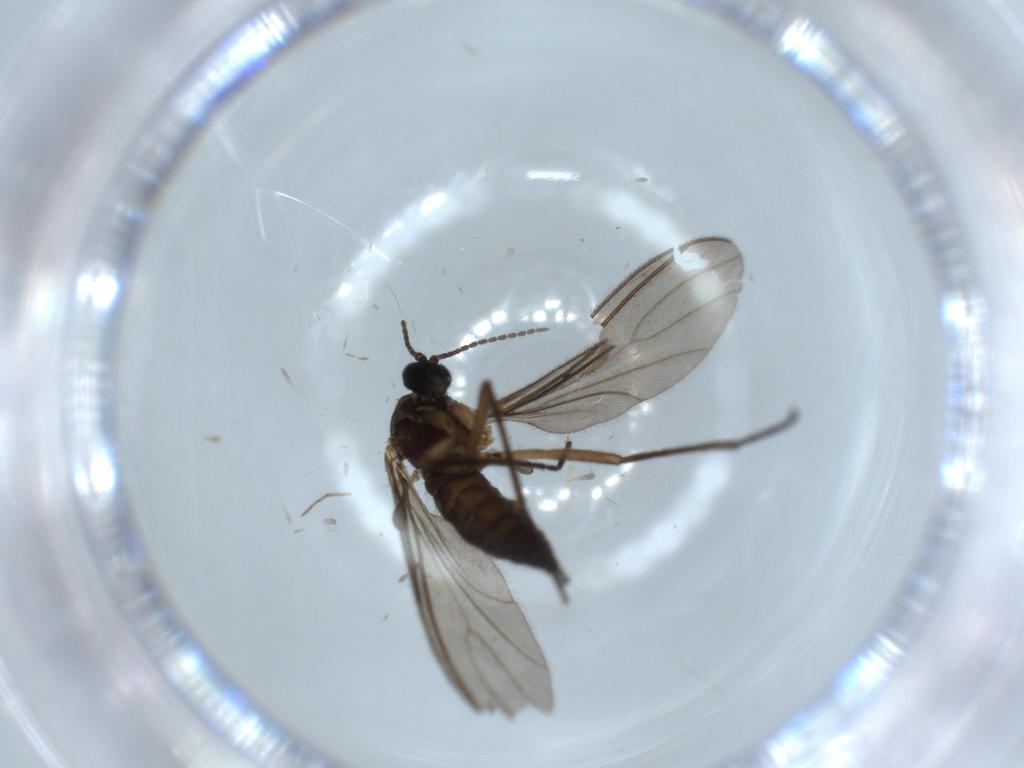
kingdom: Animalia
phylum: Arthropoda
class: Insecta
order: Diptera
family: Sciaridae
